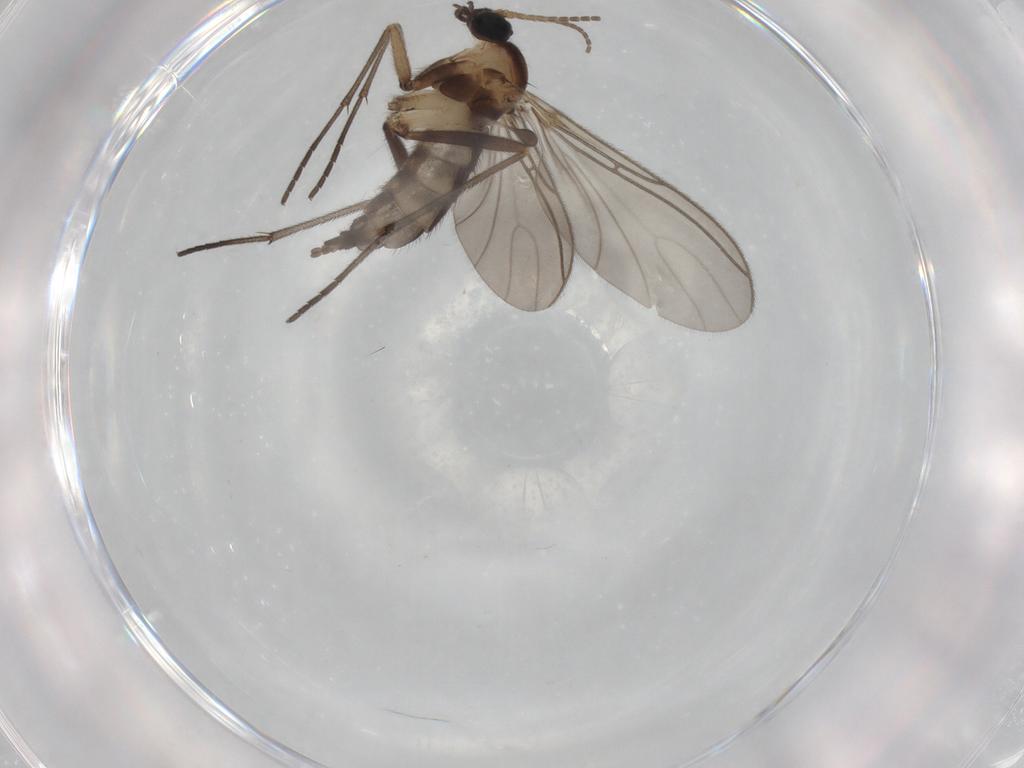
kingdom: Animalia
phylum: Arthropoda
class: Insecta
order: Diptera
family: Sciaridae
